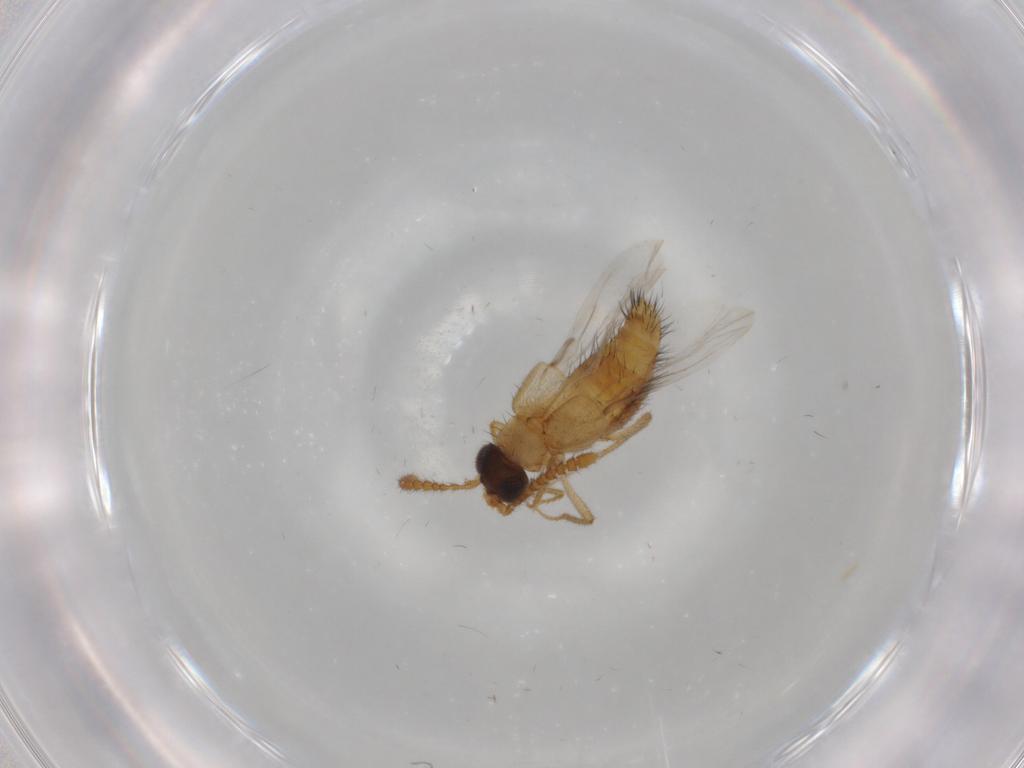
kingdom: Animalia
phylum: Arthropoda
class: Insecta
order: Coleoptera
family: Staphylinidae
